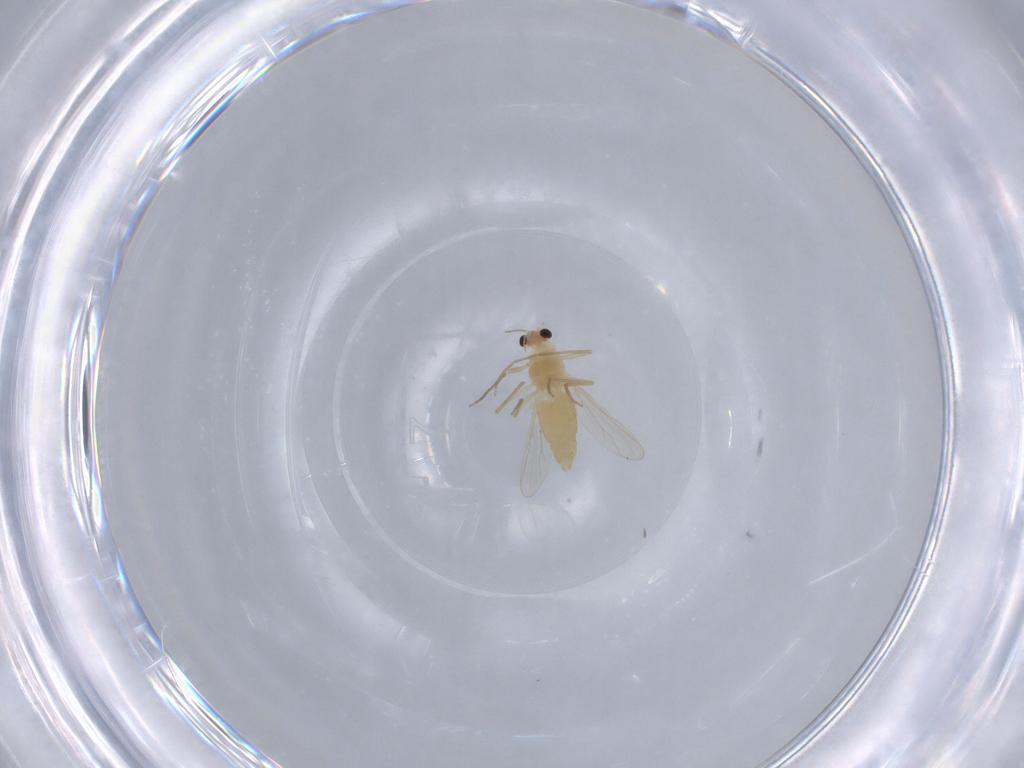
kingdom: Animalia
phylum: Arthropoda
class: Insecta
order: Diptera
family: Chironomidae
